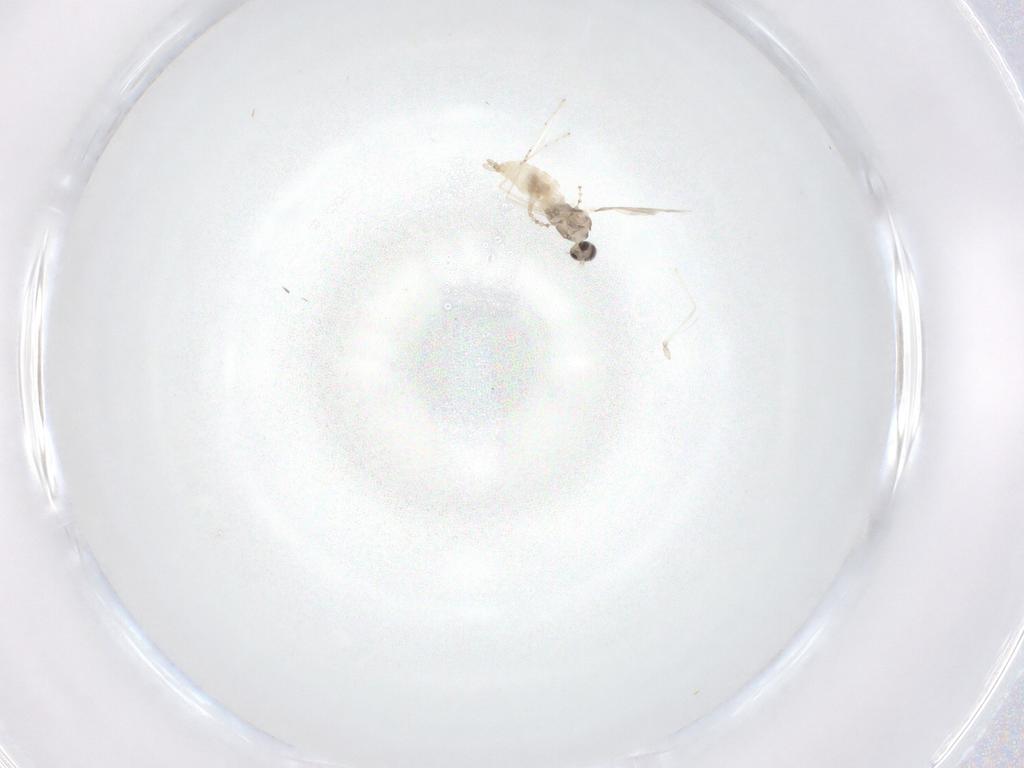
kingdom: Animalia
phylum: Arthropoda
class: Insecta
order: Diptera
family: Cecidomyiidae
